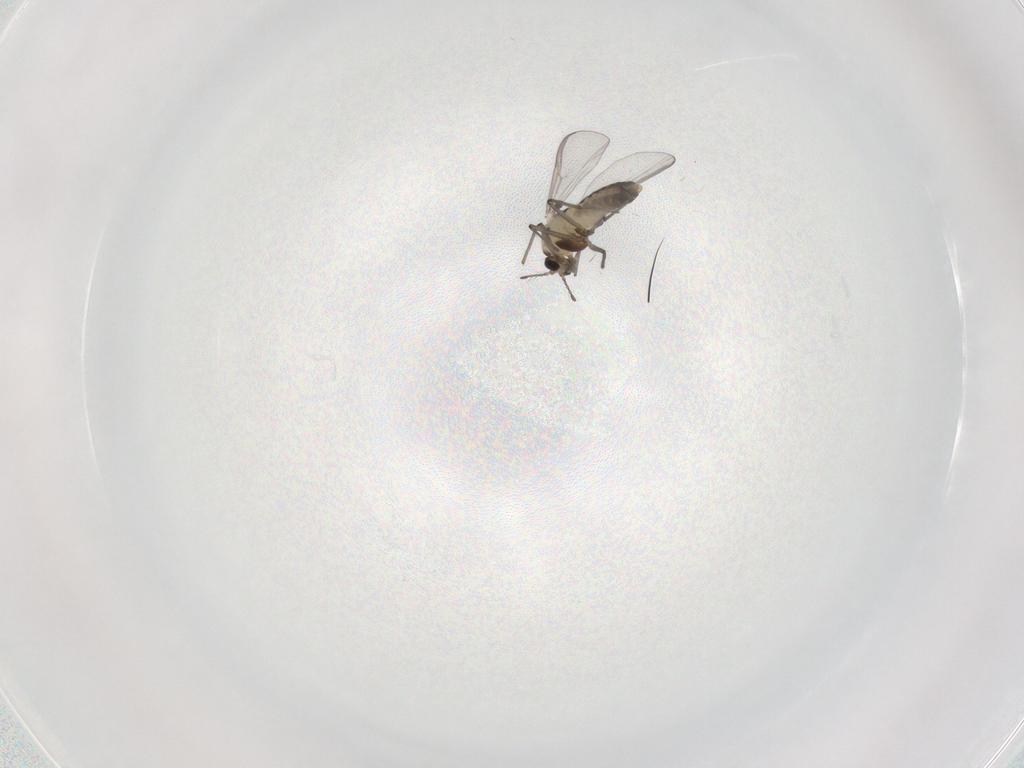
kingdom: Animalia
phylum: Arthropoda
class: Insecta
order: Diptera
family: Chironomidae
